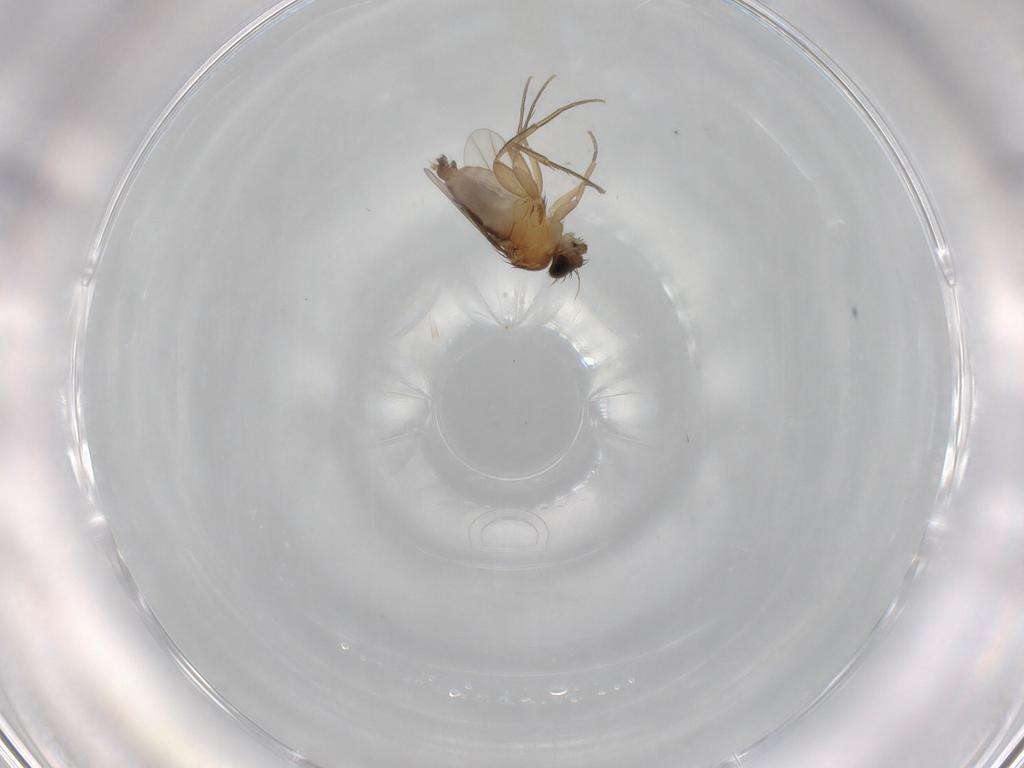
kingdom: Animalia
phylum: Arthropoda
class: Insecta
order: Diptera
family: Phoridae
